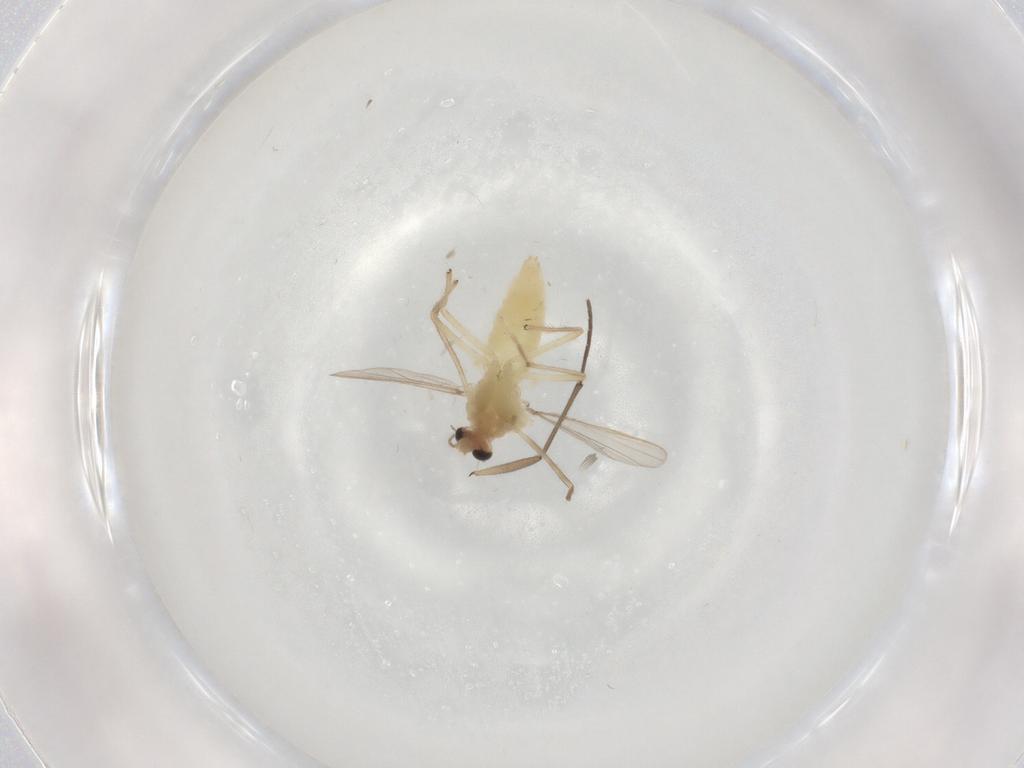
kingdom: Animalia
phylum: Arthropoda
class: Insecta
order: Diptera
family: Chironomidae
